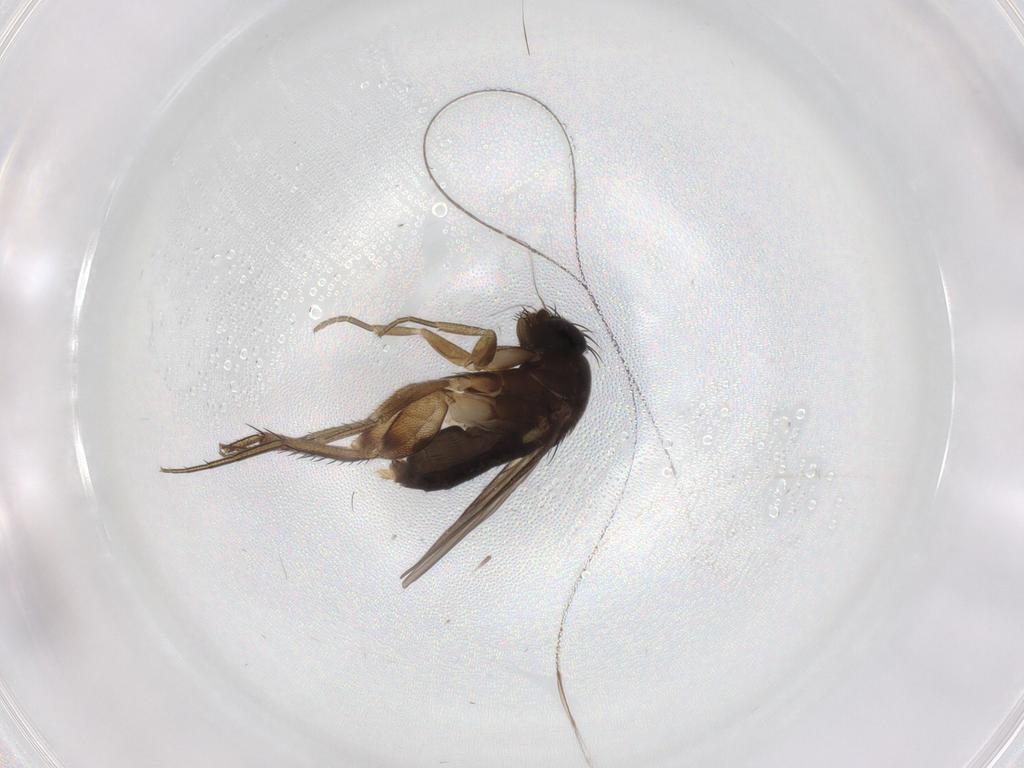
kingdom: Animalia
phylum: Arthropoda
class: Insecta
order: Diptera
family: Phoridae
